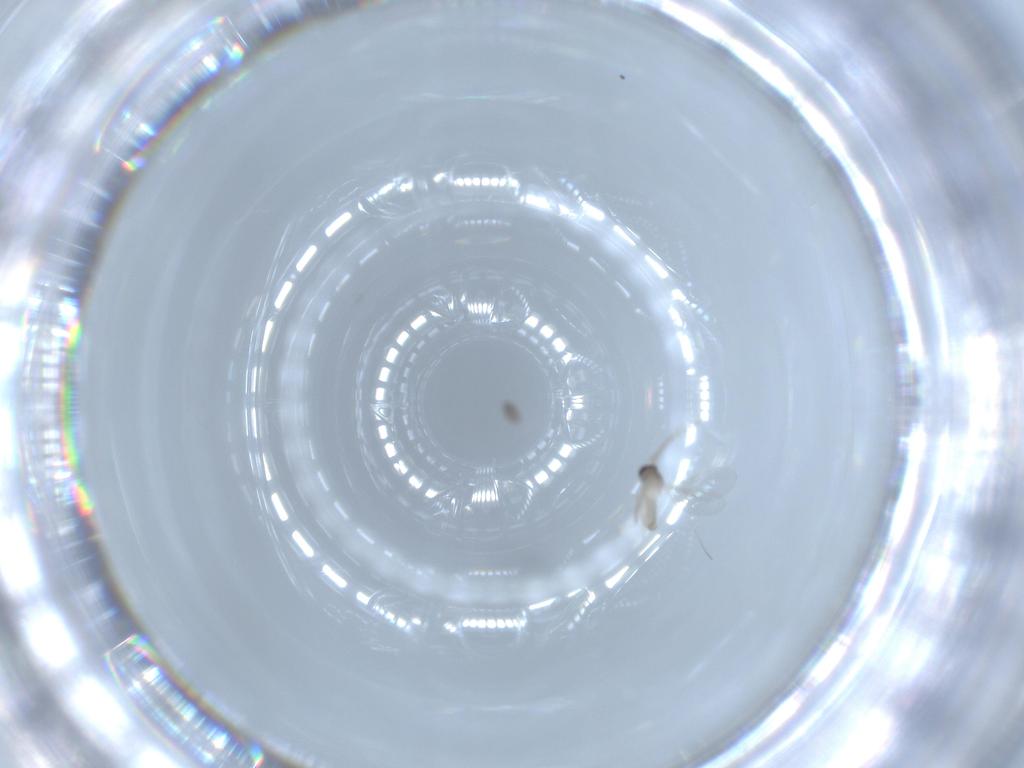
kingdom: Animalia
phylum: Arthropoda
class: Insecta
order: Diptera
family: Cecidomyiidae
